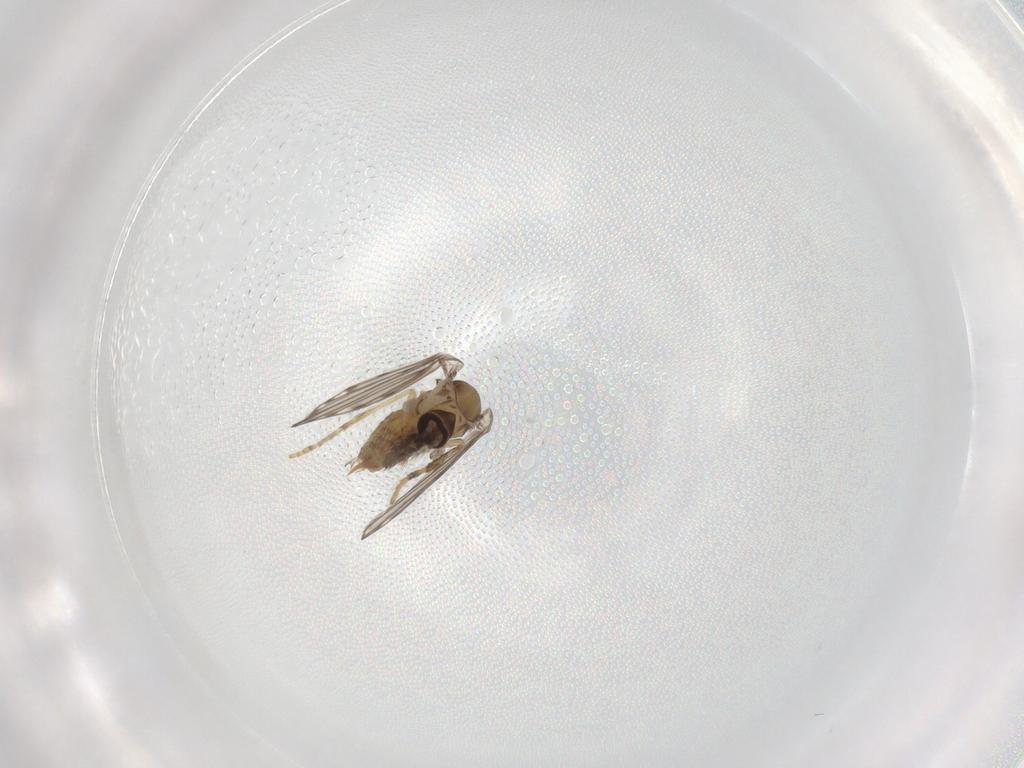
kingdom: Animalia
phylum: Arthropoda
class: Insecta
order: Diptera
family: Psychodidae
